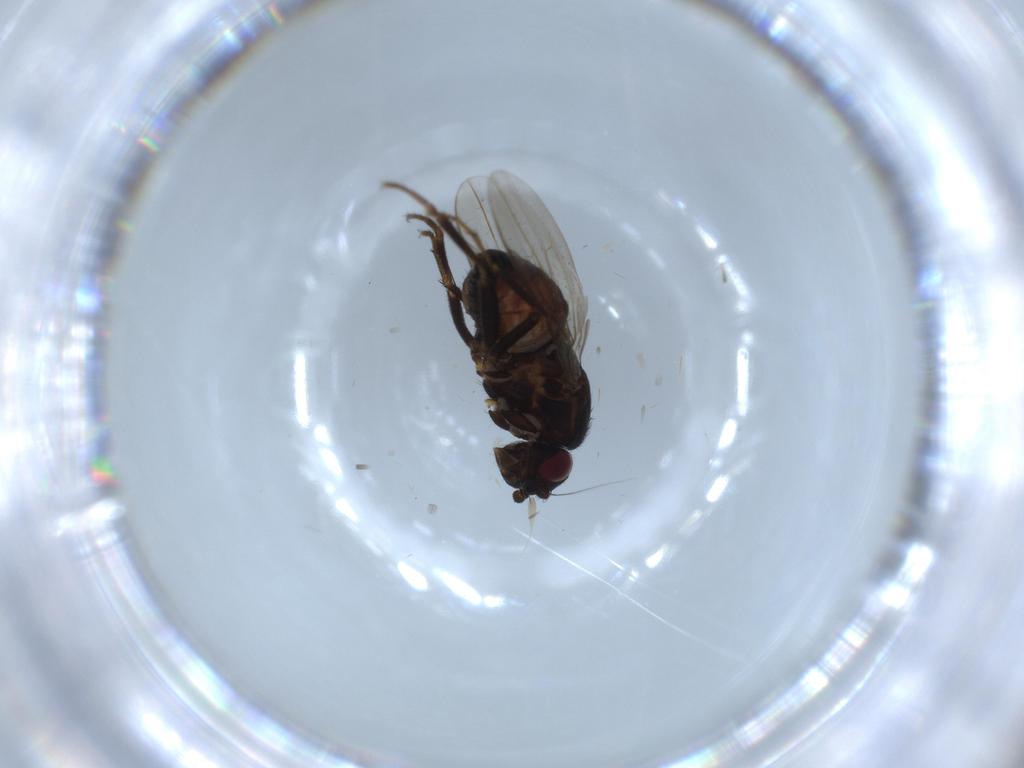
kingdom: Animalia
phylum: Arthropoda
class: Insecta
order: Diptera
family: Sphaeroceridae
